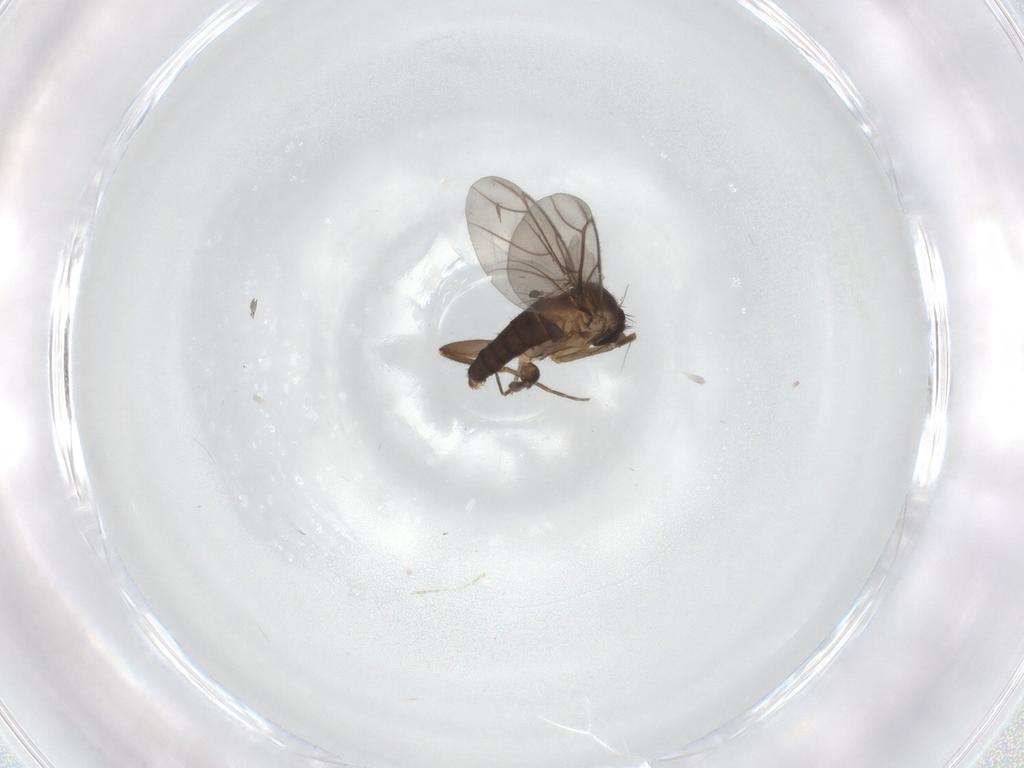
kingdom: Animalia
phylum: Arthropoda
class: Insecta
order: Diptera
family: Cecidomyiidae
